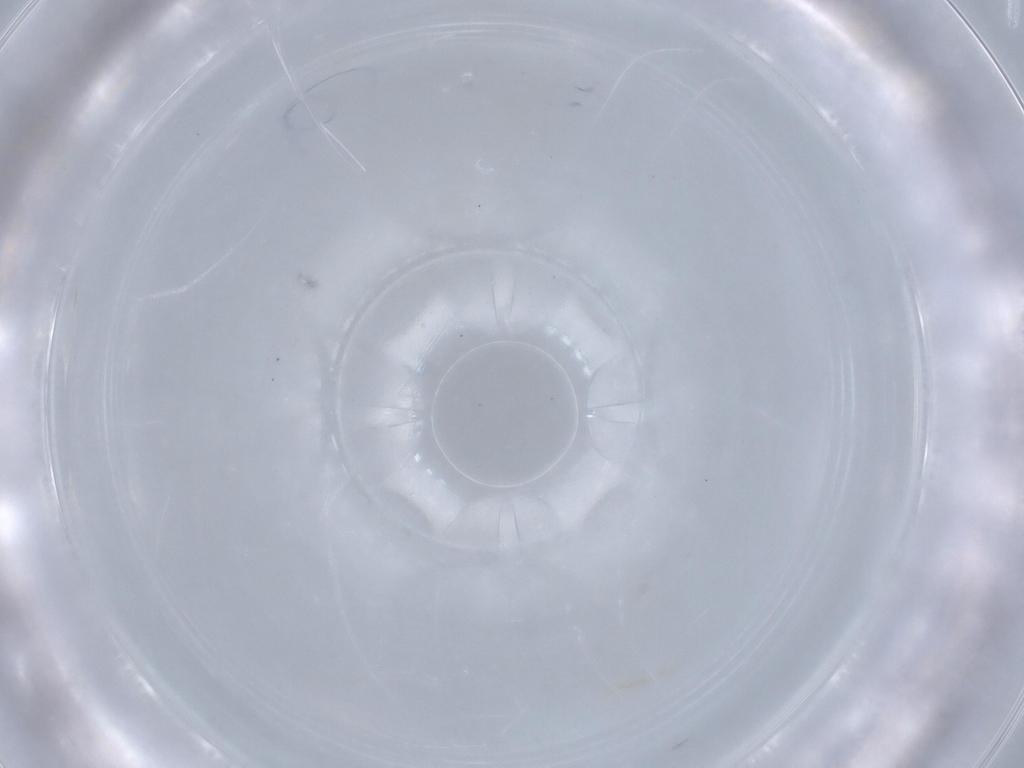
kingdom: Animalia
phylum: Arthropoda
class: Insecta
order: Diptera
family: Sciaridae
